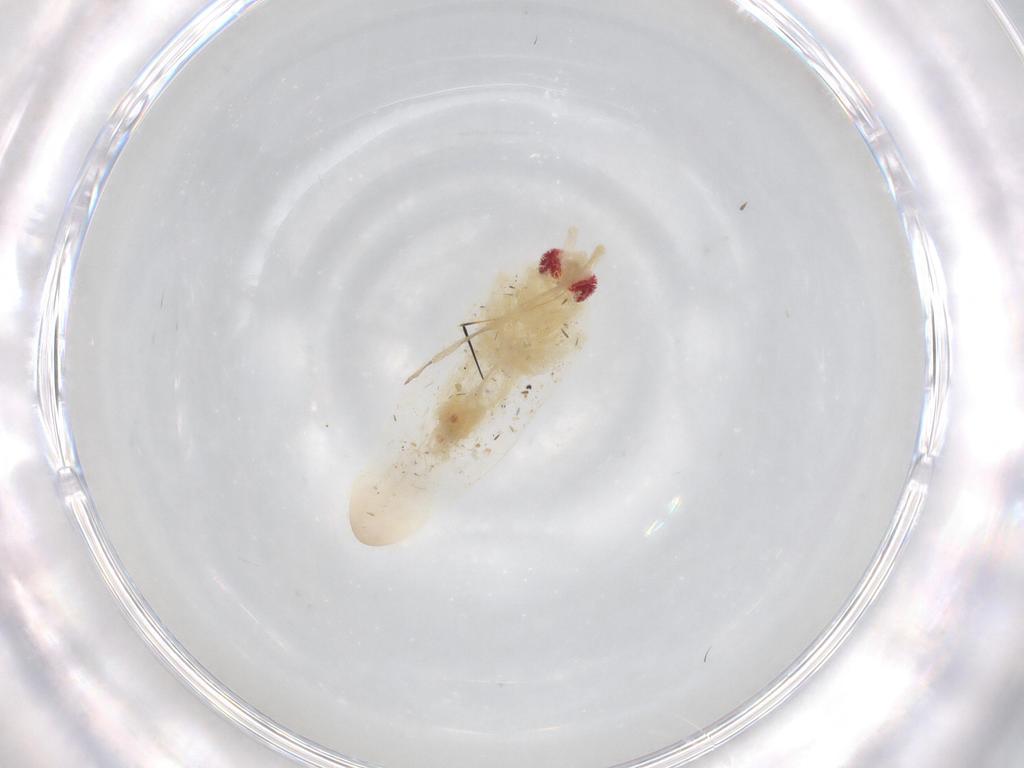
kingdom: Animalia
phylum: Arthropoda
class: Insecta
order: Hemiptera
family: Aleyrodidae
